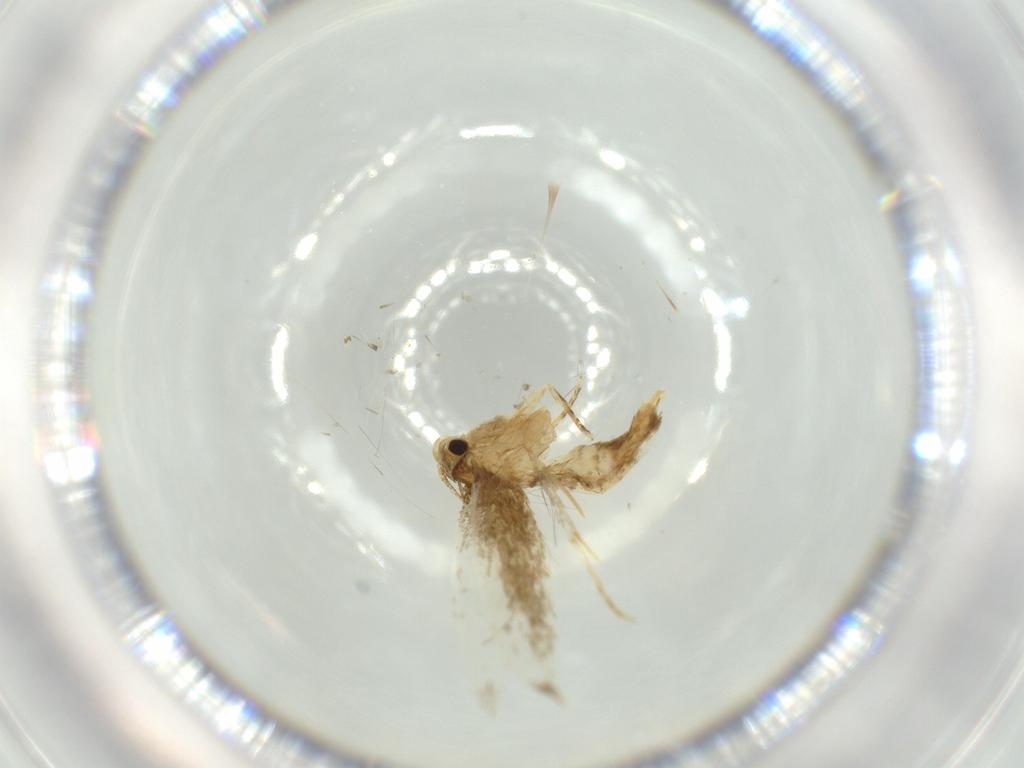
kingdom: Animalia
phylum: Arthropoda
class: Insecta
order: Lepidoptera
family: Tineidae
